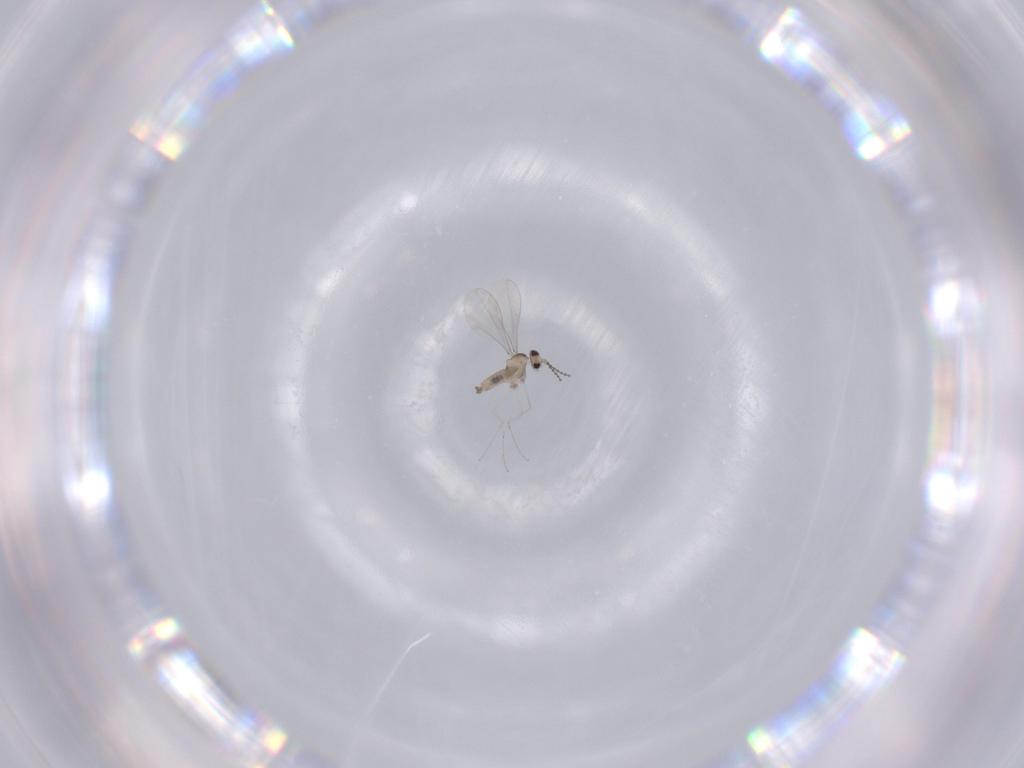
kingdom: Animalia
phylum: Arthropoda
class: Insecta
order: Diptera
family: Cecidomyiidae
